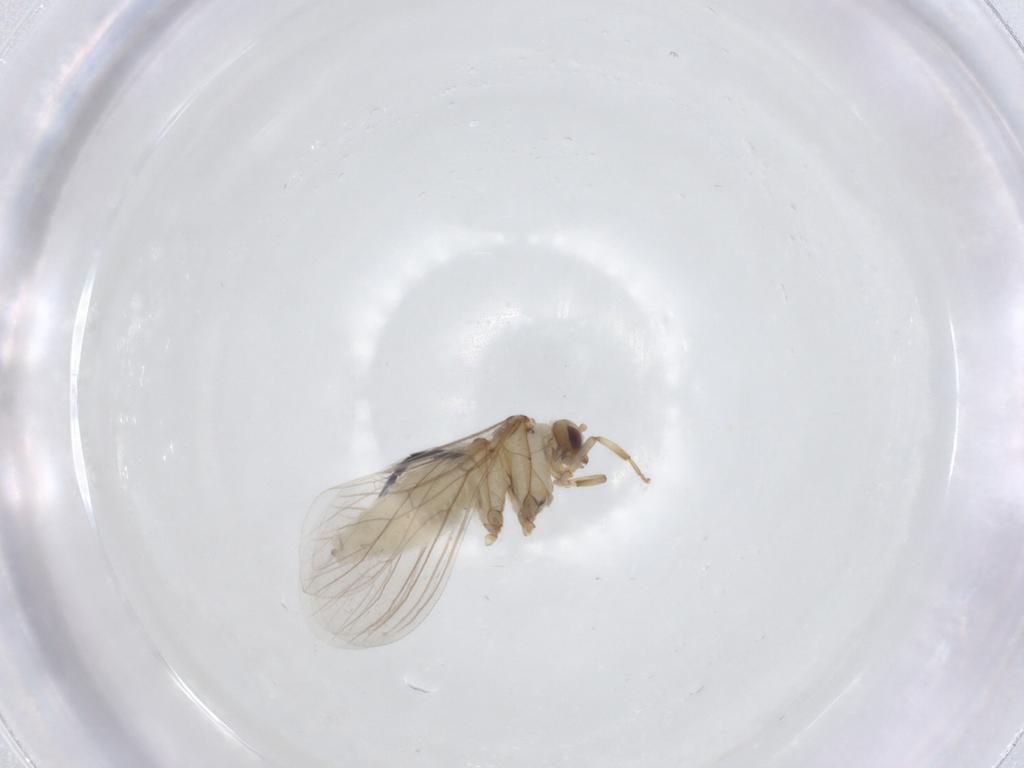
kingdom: Animalia
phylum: Arthropoda
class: Insecta
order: Neuroptera
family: Coniopterygidae
